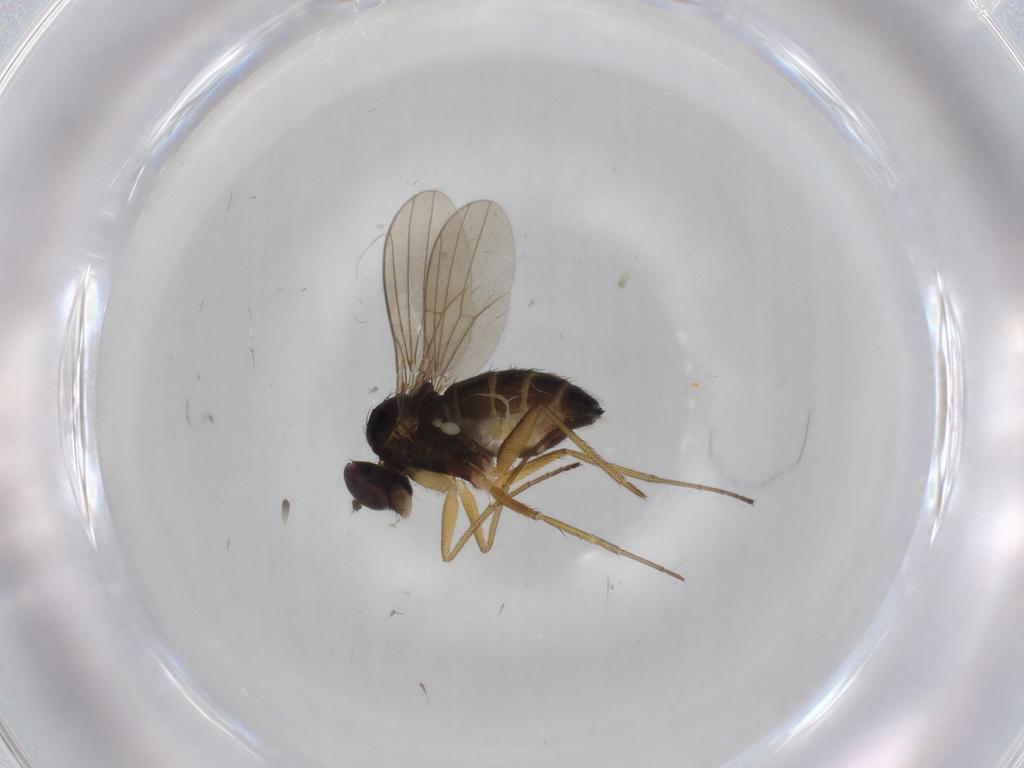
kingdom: Animalia
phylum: Arthropoda
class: Insecta
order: Diptera
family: Dolichopodidae
